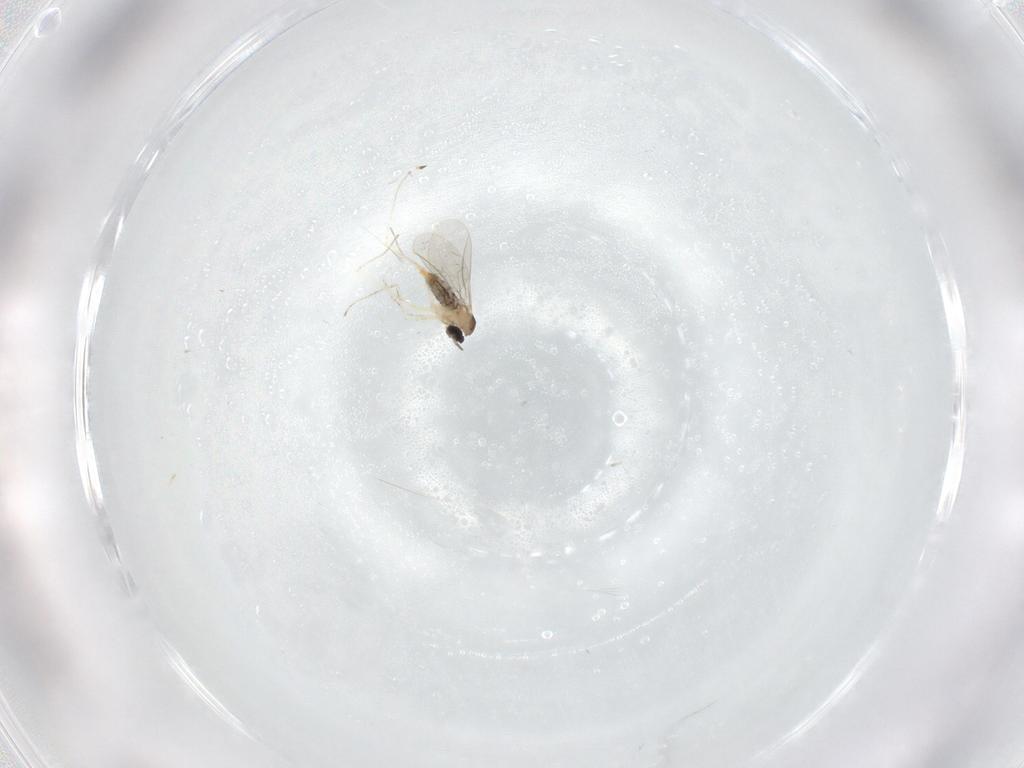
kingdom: Animalia
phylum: Arthropoda
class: Insecta
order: Diptera
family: Cecidomyiidae
